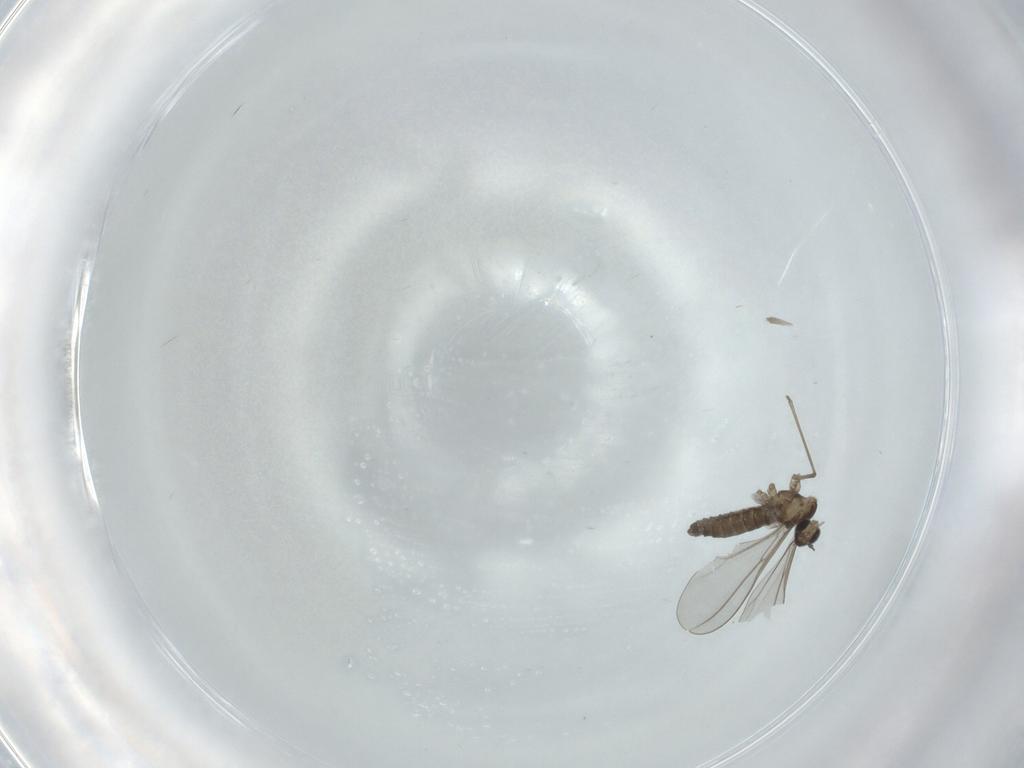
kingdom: Animalia
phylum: Arthropoda
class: Insecta
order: Diptera
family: Cecidomyiidae
